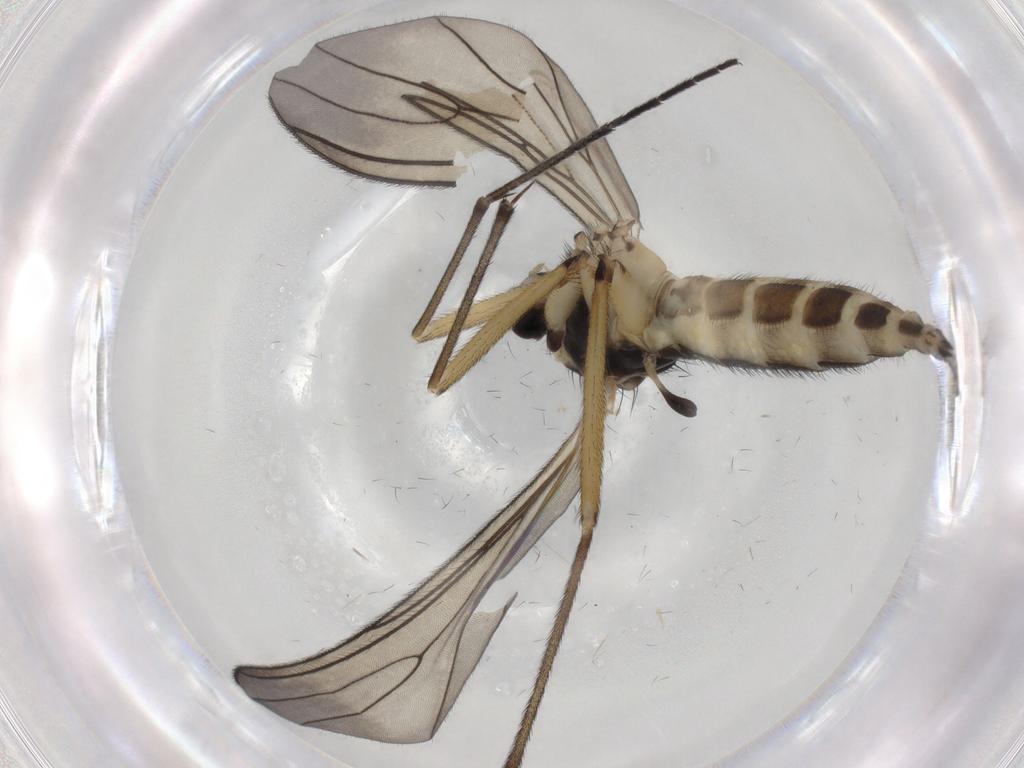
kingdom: Animalia
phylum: Arthropoda
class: Insecta
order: Diptera
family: Sciaridae
